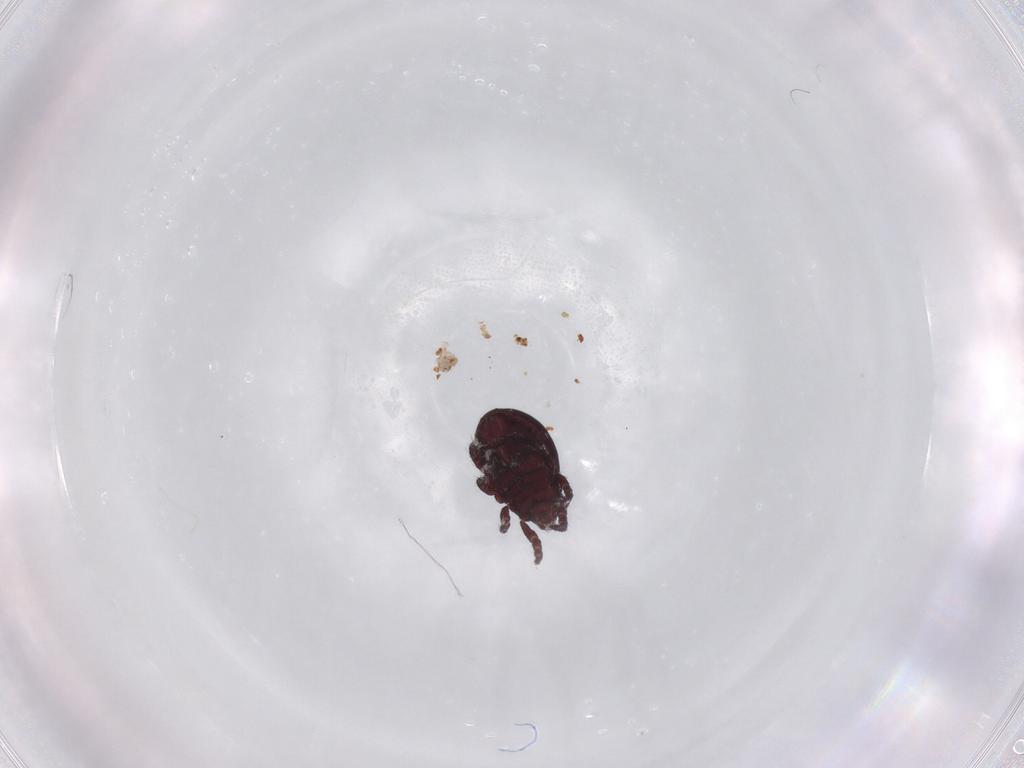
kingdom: Animalia
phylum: Arthropoda
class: Arachnida
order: Sarcoptiformes
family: Hermanniidae
